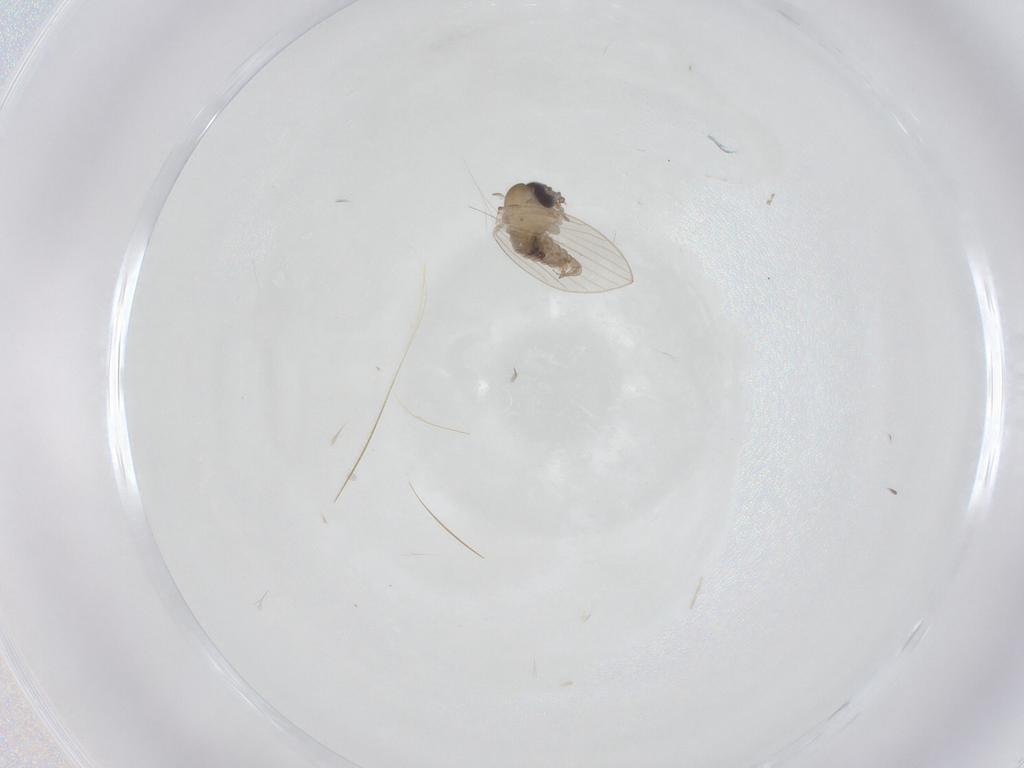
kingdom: Animalia
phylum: Arthropoda
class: Insecta
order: Diptera
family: Psychodidae
